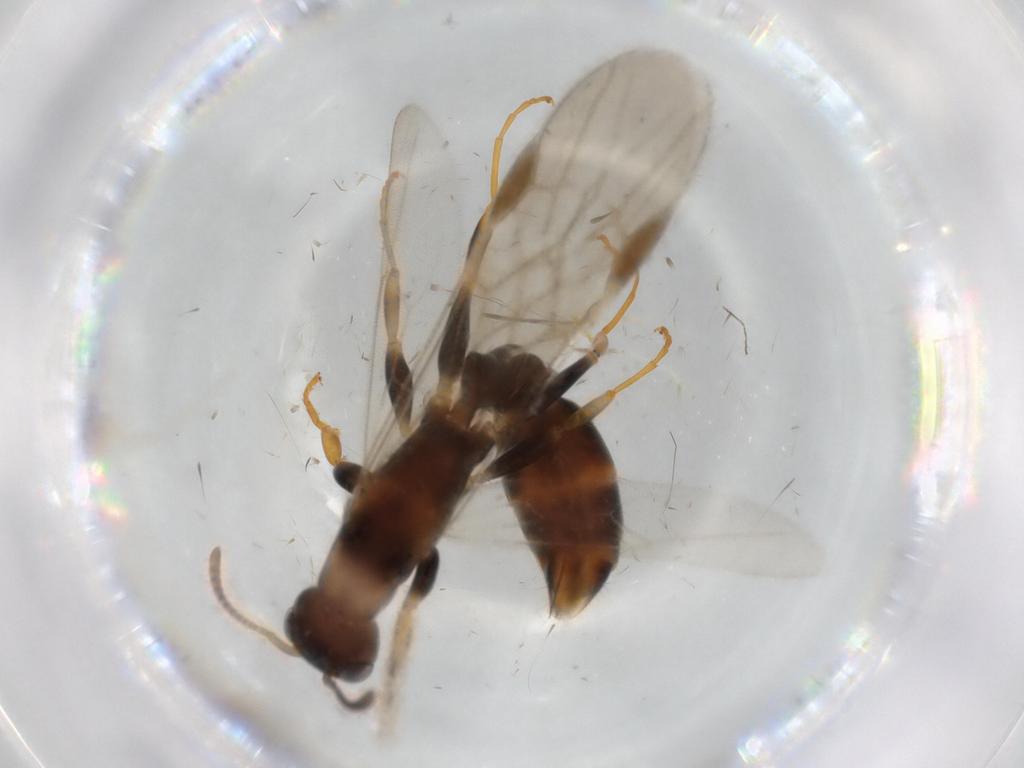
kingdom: Animalia
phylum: Arthropoda
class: Insecta
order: Hymenoptera
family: Formicidae
